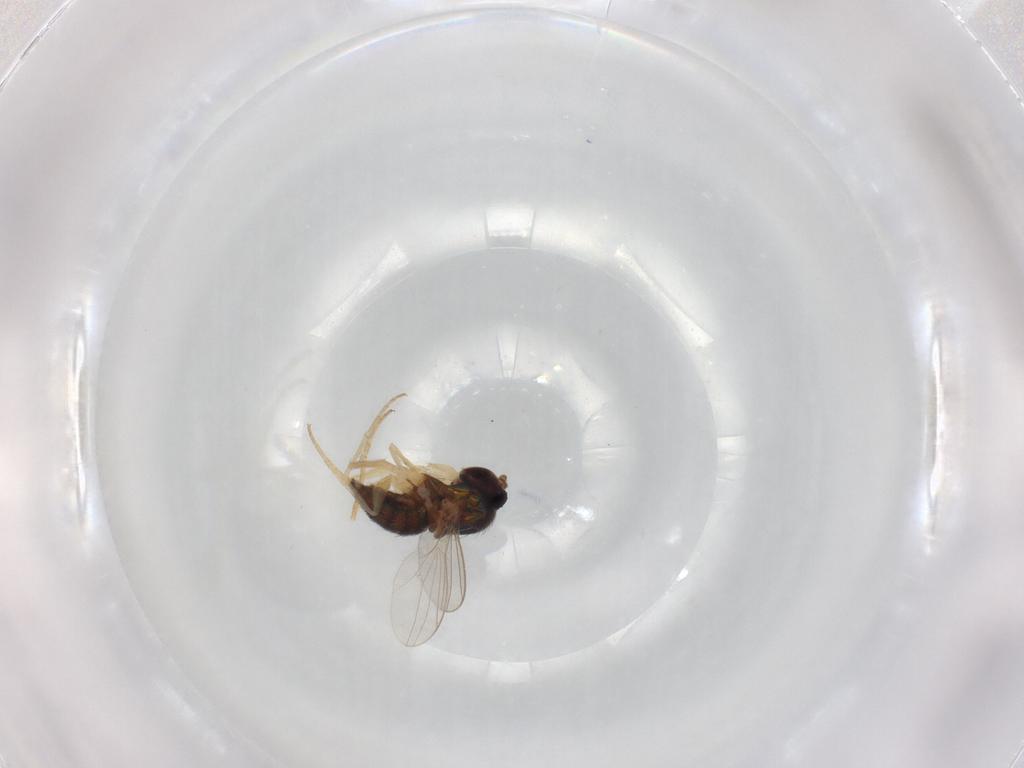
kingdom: Animalia
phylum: Arthropoda
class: Insecta
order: Diptera
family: Dolichopodidae
